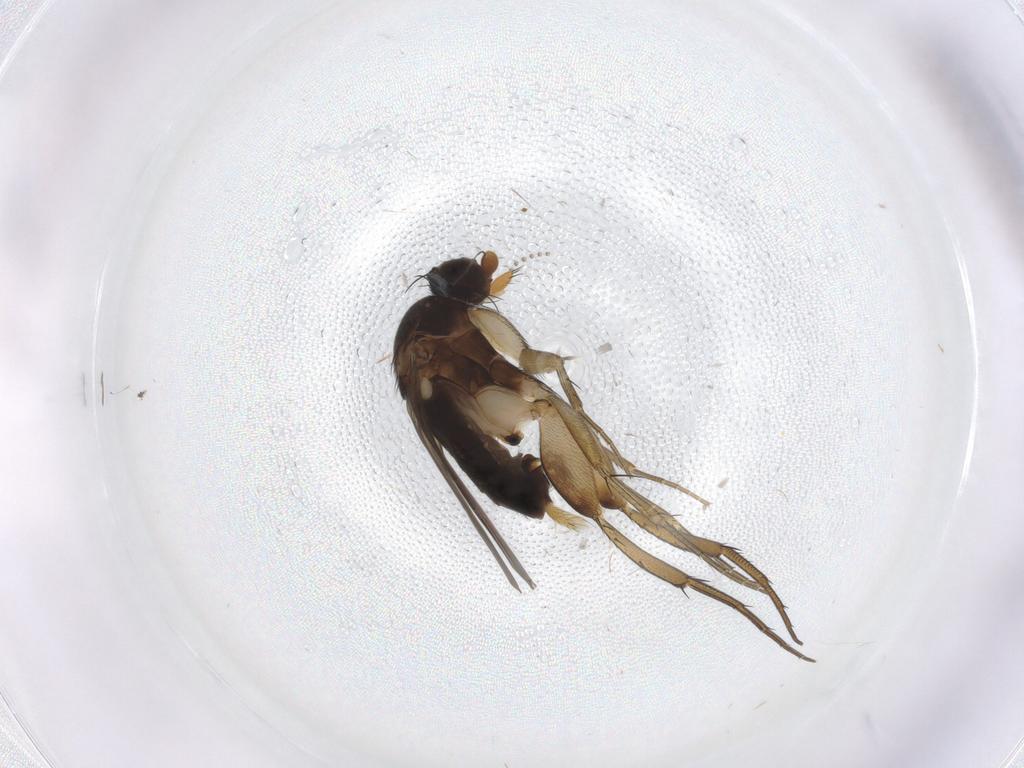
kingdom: Animalia
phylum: Arthropoda
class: Insecta
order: Diptera
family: Phoridae
